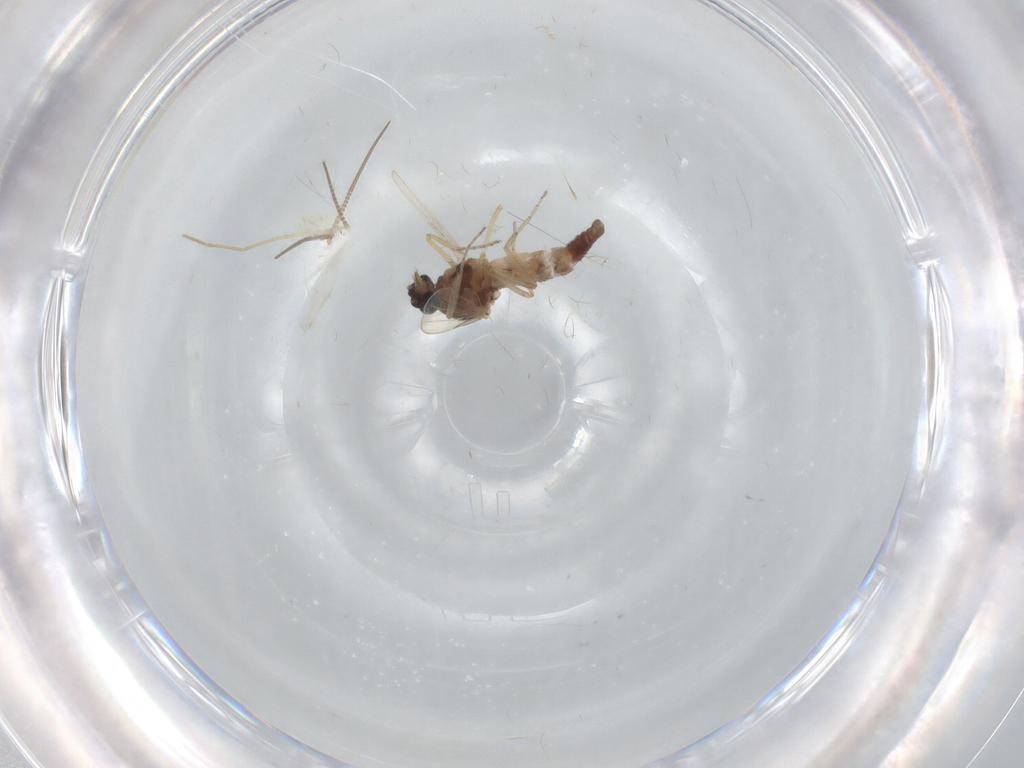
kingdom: Animalia
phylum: Arthropoda
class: Insecta
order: Diptera
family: Ceratopogonidae
